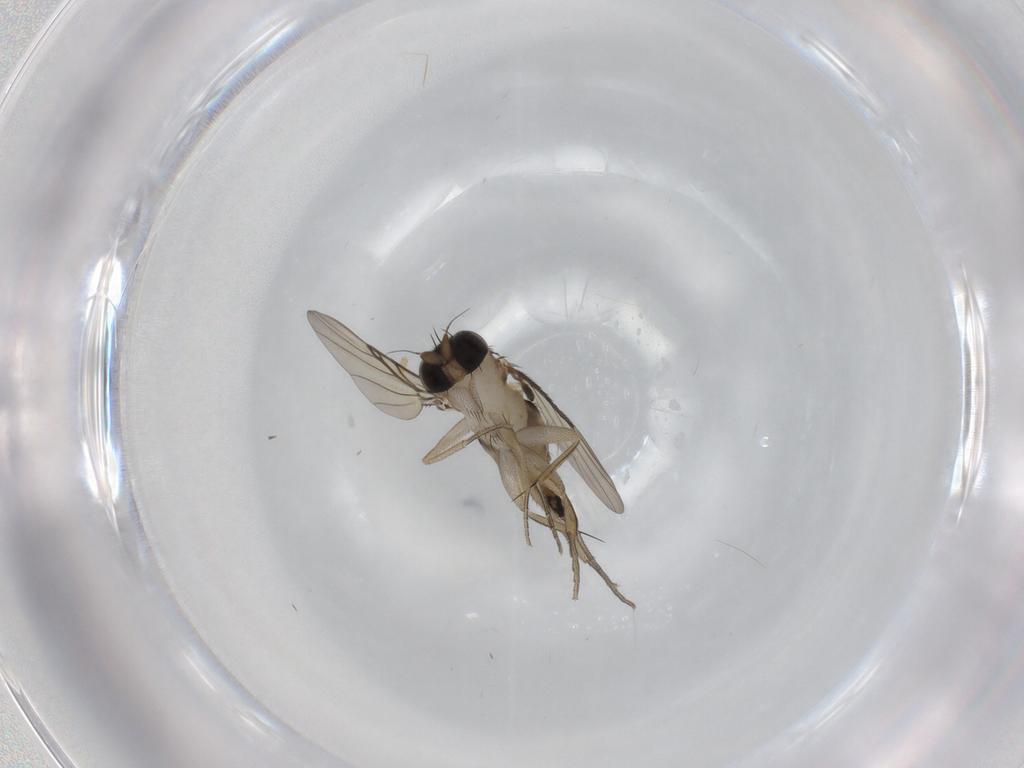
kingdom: Animalia
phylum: Arthropoda
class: Insecta
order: Diptera
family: Phoridae
